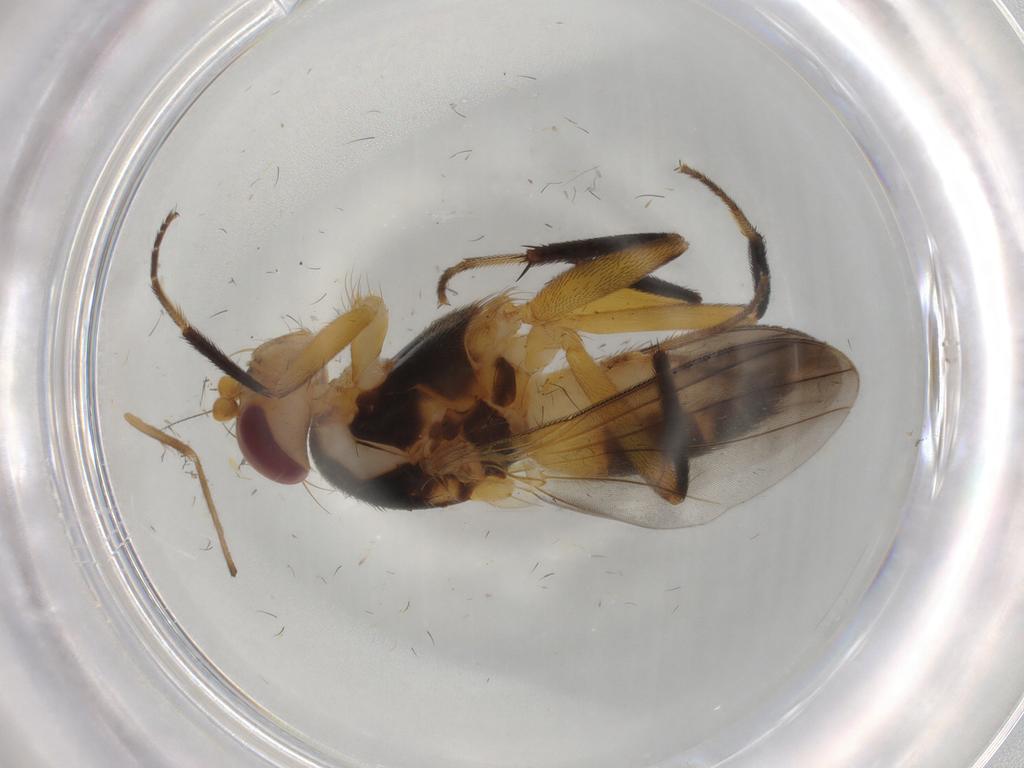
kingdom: Animalia
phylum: Arthropoda
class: Insecta
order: Diptera
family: Heleomyzidae
